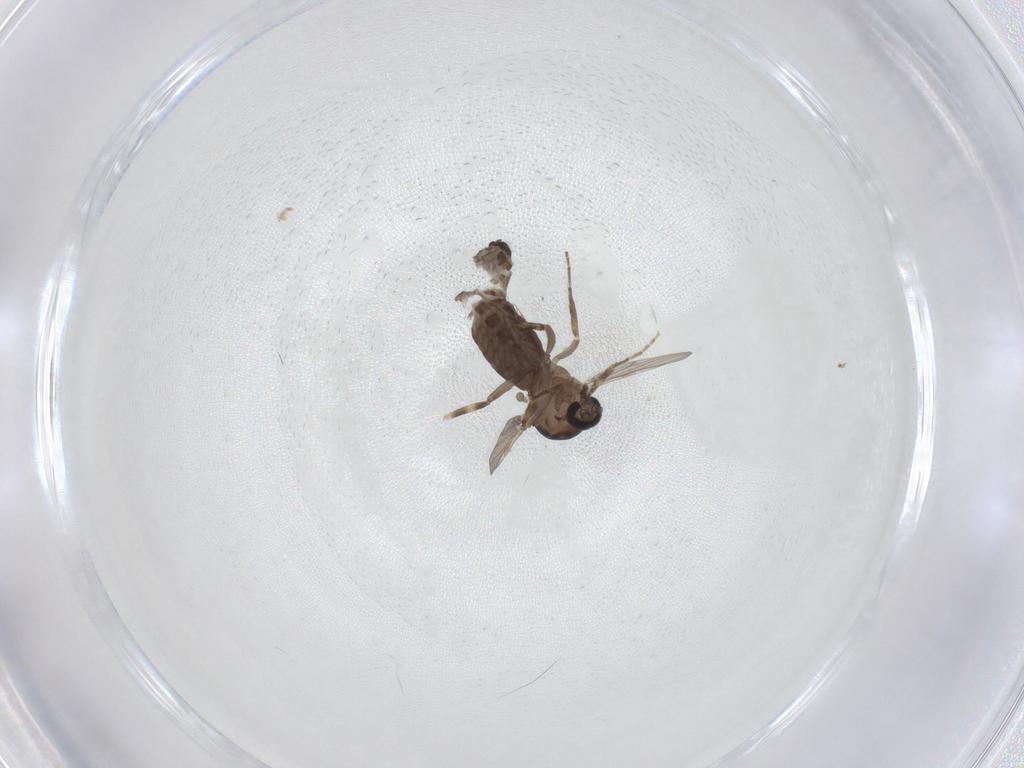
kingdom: Animalia
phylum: Arthropoda
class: Insecta
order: Diptera
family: Ceratopogonidae
